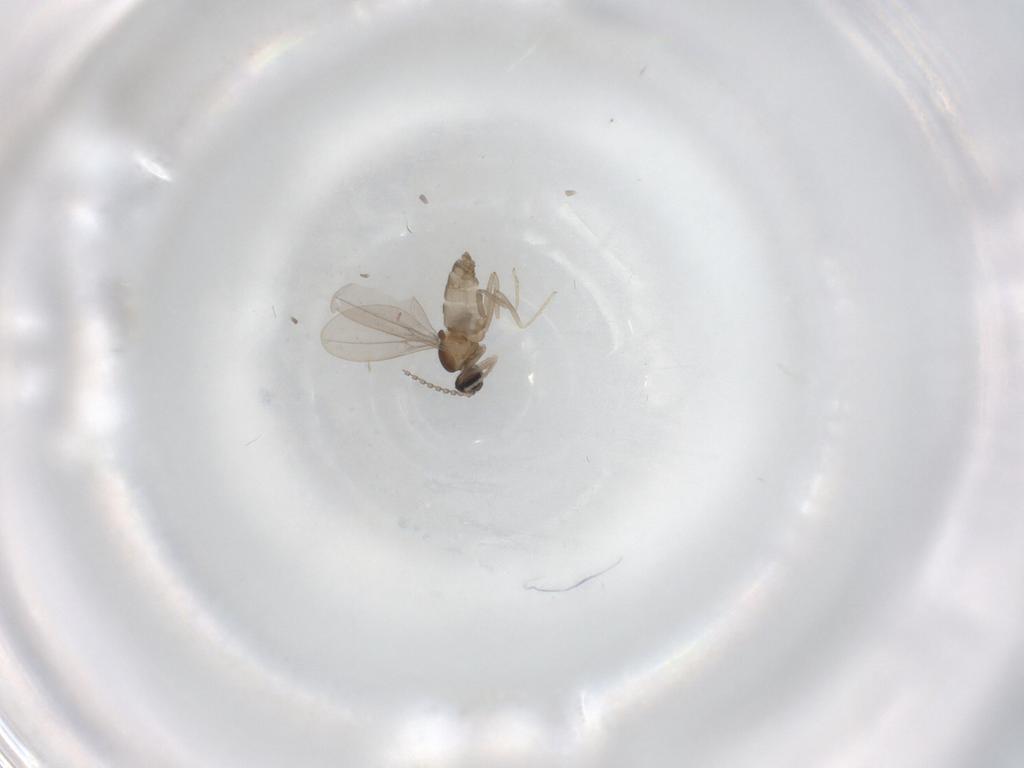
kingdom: Animalia
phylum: Arthropoda
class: Insecta
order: Diptera
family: Cecidomyiidae
